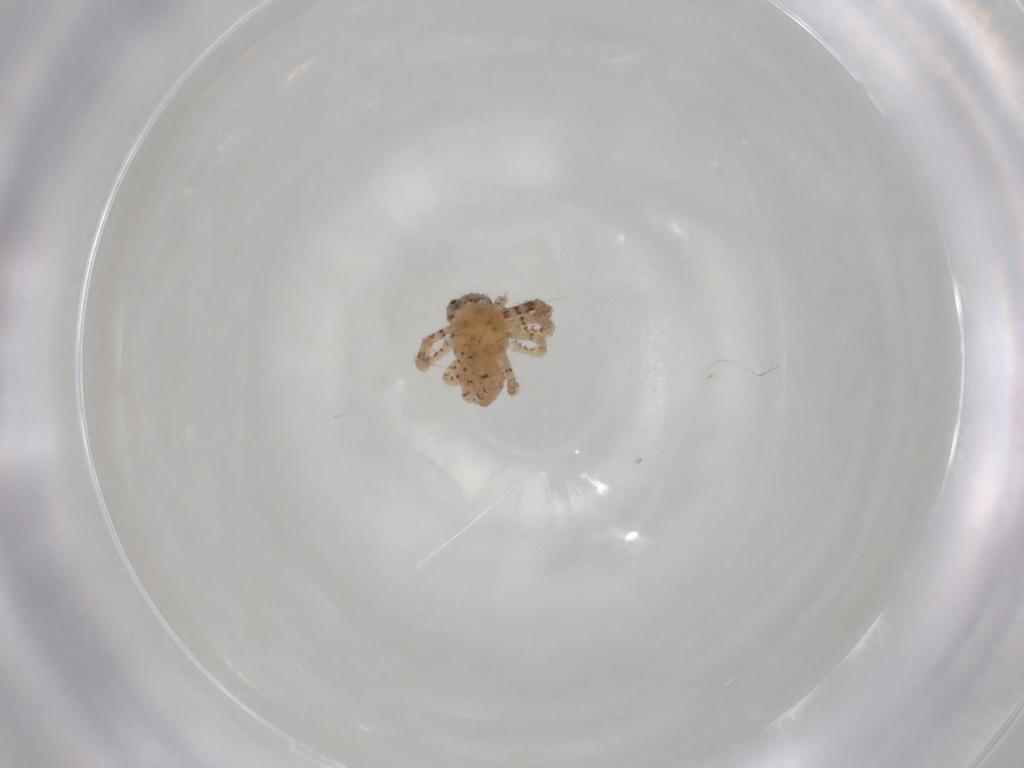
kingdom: Animalia
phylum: Arthropoda
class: Arachnida
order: Araneae
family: Thomisidae
